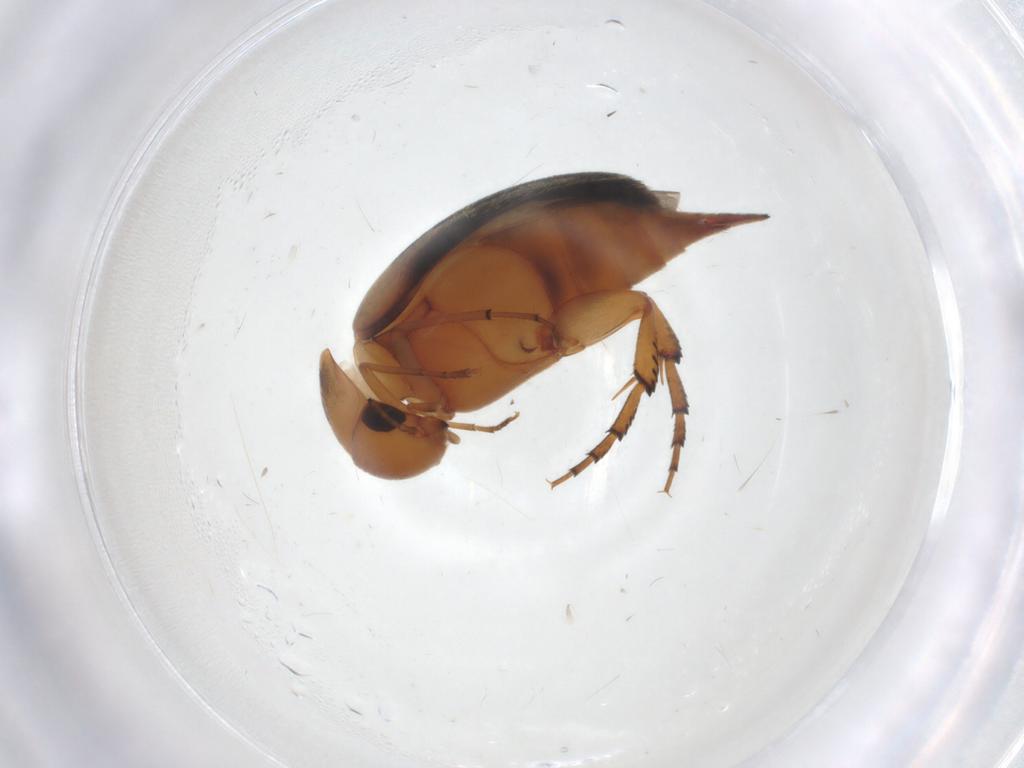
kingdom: Animalia
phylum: Arthropoda
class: Insecta
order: Coleoptera
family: Mordellidae
